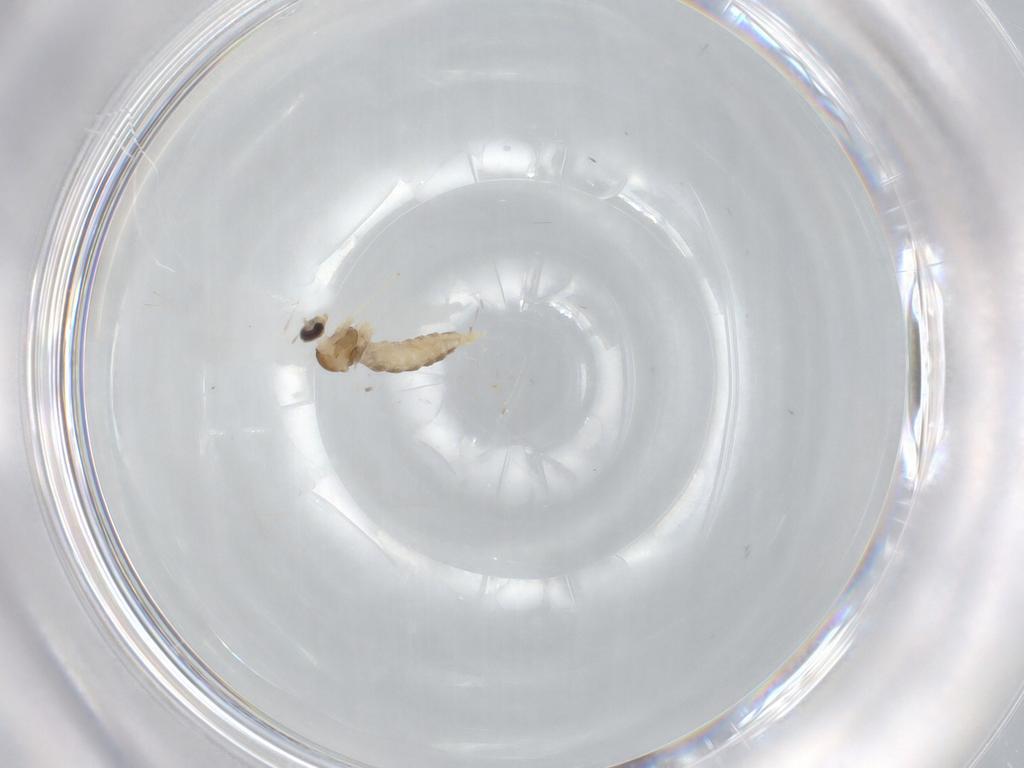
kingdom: Animalia
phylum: Arthropoda
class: Insecta
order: Diptera
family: Cecidomyiidae
